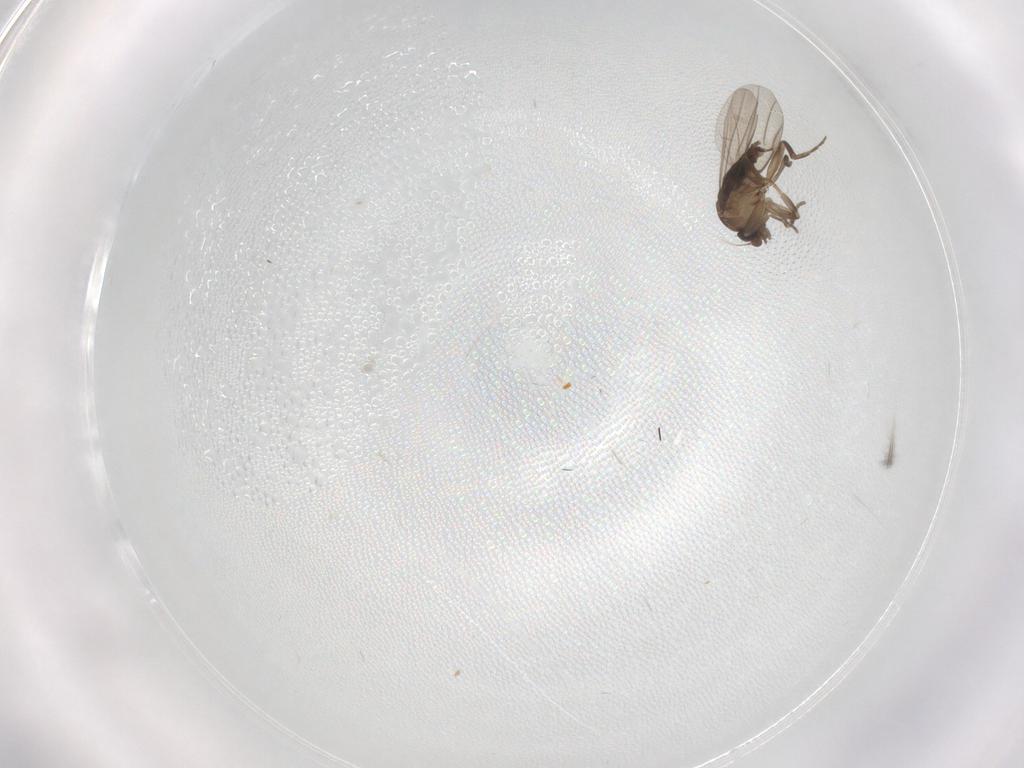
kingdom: Animalia
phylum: Arthropoda
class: Insecta
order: Diptera
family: Phoridae
